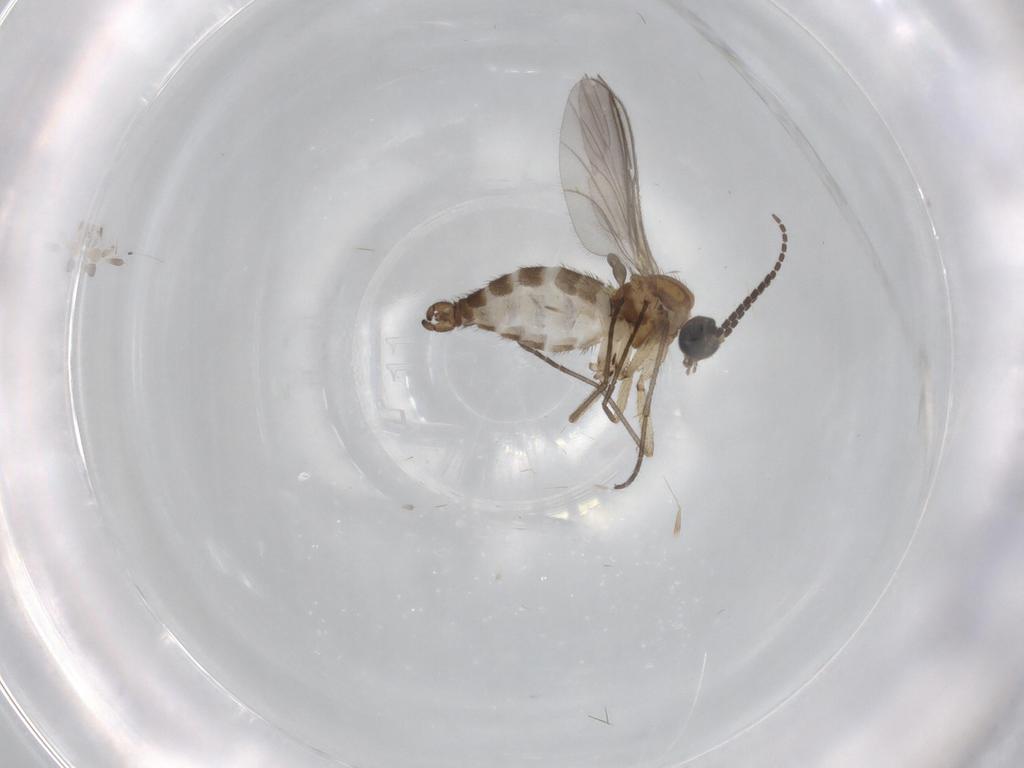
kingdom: Animalia
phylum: Arthropoda
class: Insecta
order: Diptera
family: Sciaridae
